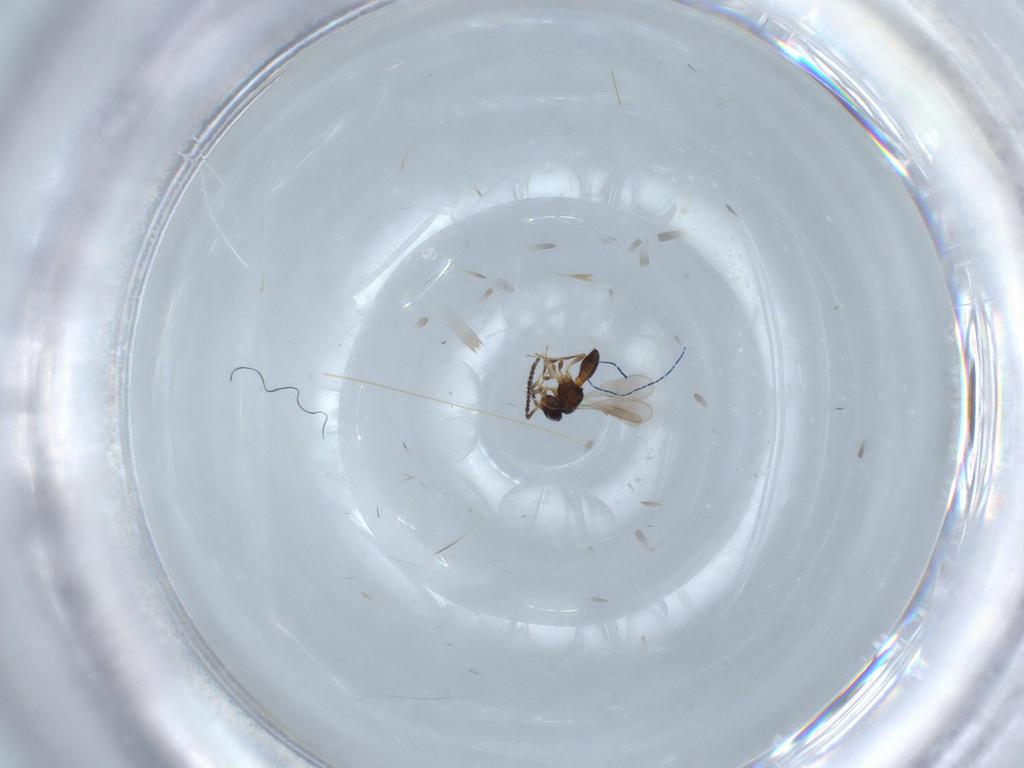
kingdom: Animalia
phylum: Arthropoda
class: Insecta
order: Hymenoptera
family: Scelionidae
